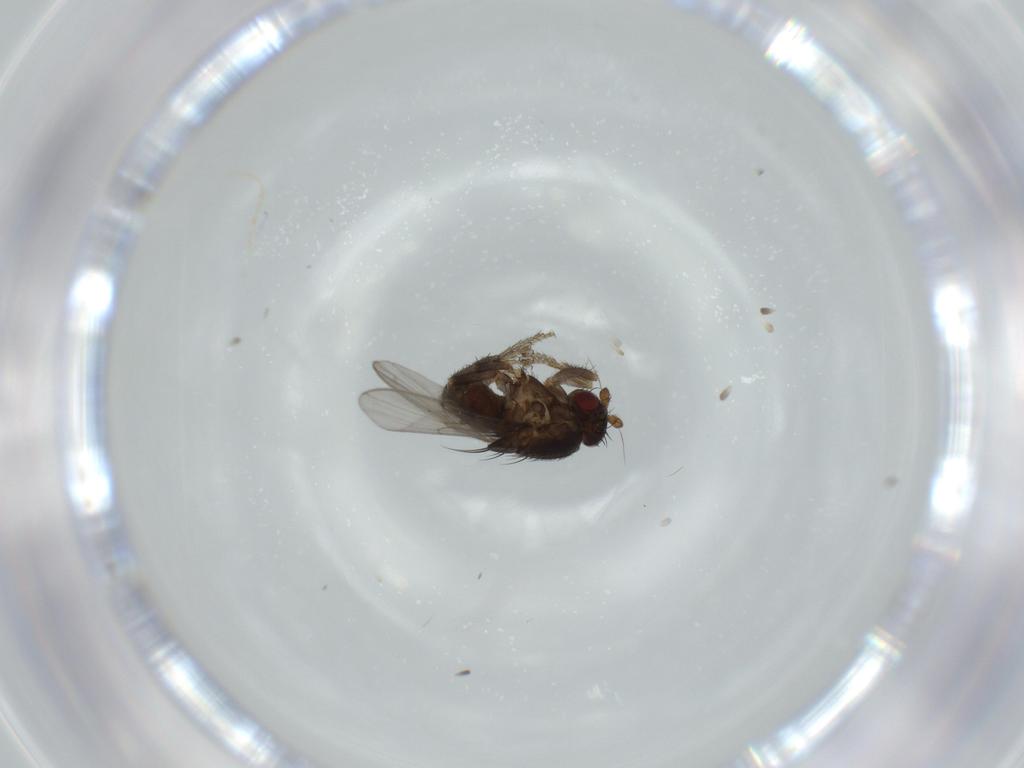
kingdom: Animalia
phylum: Arthropoda
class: Insecta
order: Diptera
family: Sphaeroceridae
